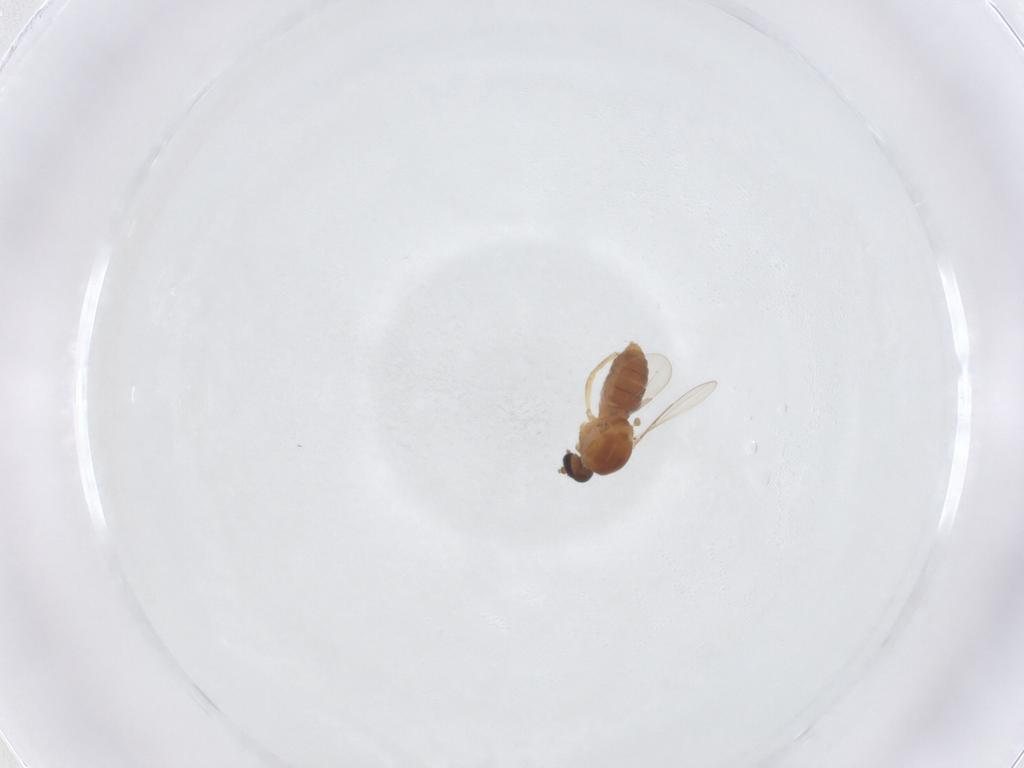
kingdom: Animalia
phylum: Arthropoda
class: Insecta
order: Diptera
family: Ceratopogonidae
